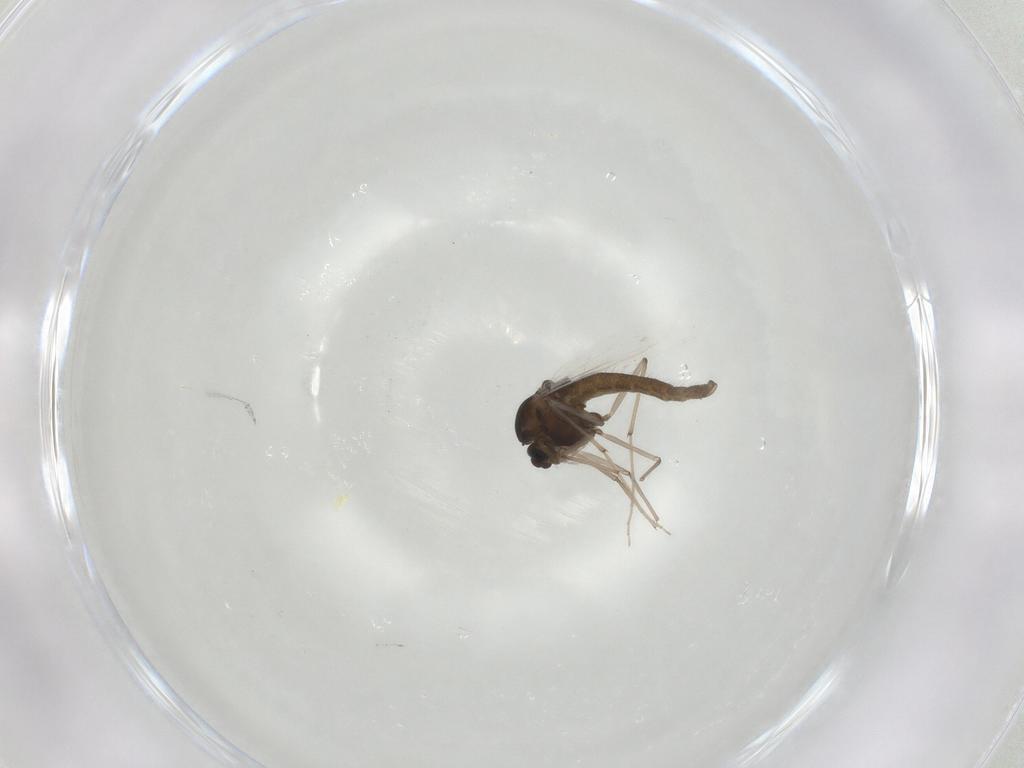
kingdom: Animalia
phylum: Arthropoda
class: Insecta
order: Diptera
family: Chironomidae
